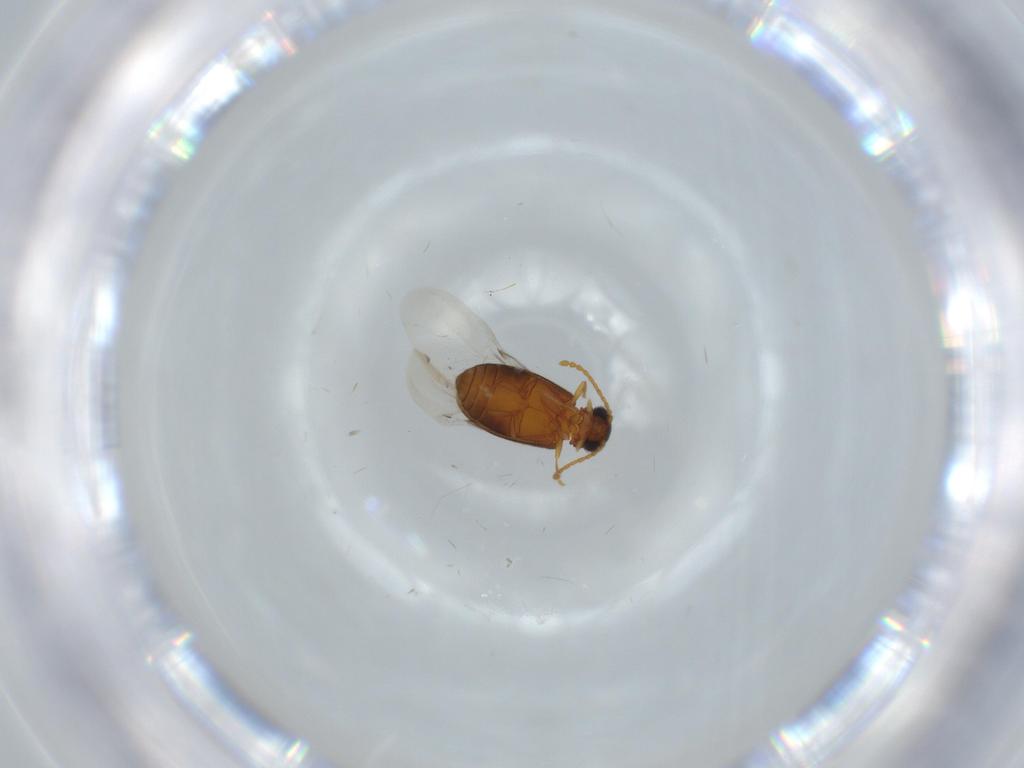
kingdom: Animalia
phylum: Arthropoda
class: Insecta
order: Coleoptera
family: Aderidae
